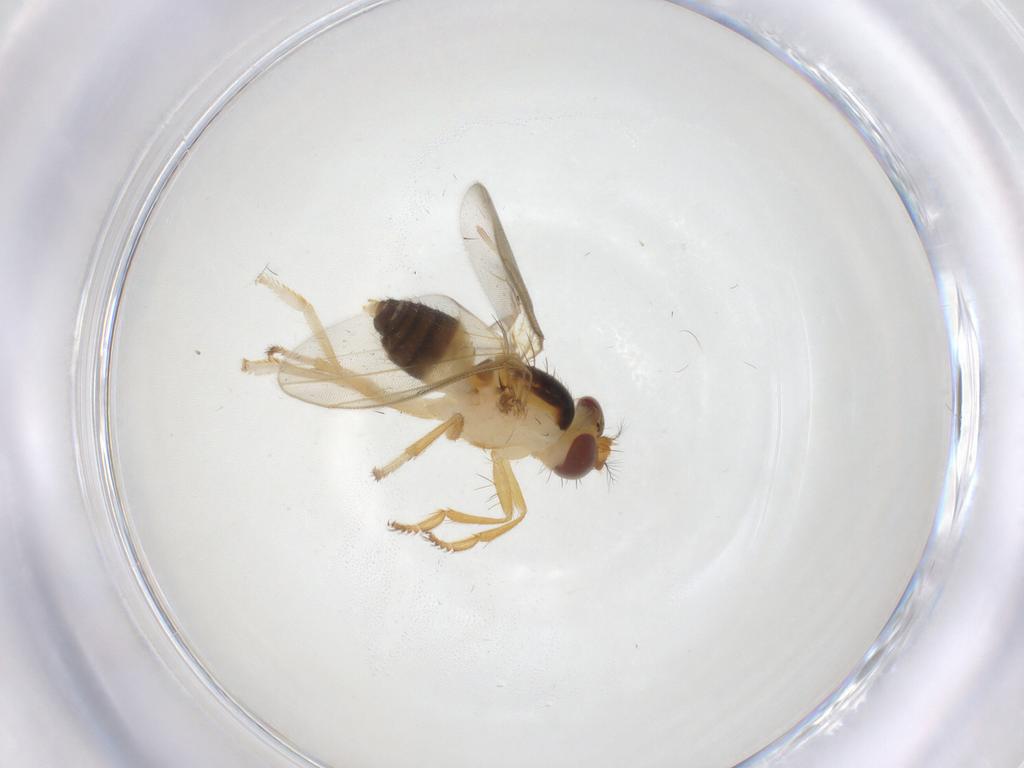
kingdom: Animalia
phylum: Arthropoda
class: Insecta
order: Diptera
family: Periscelididae
